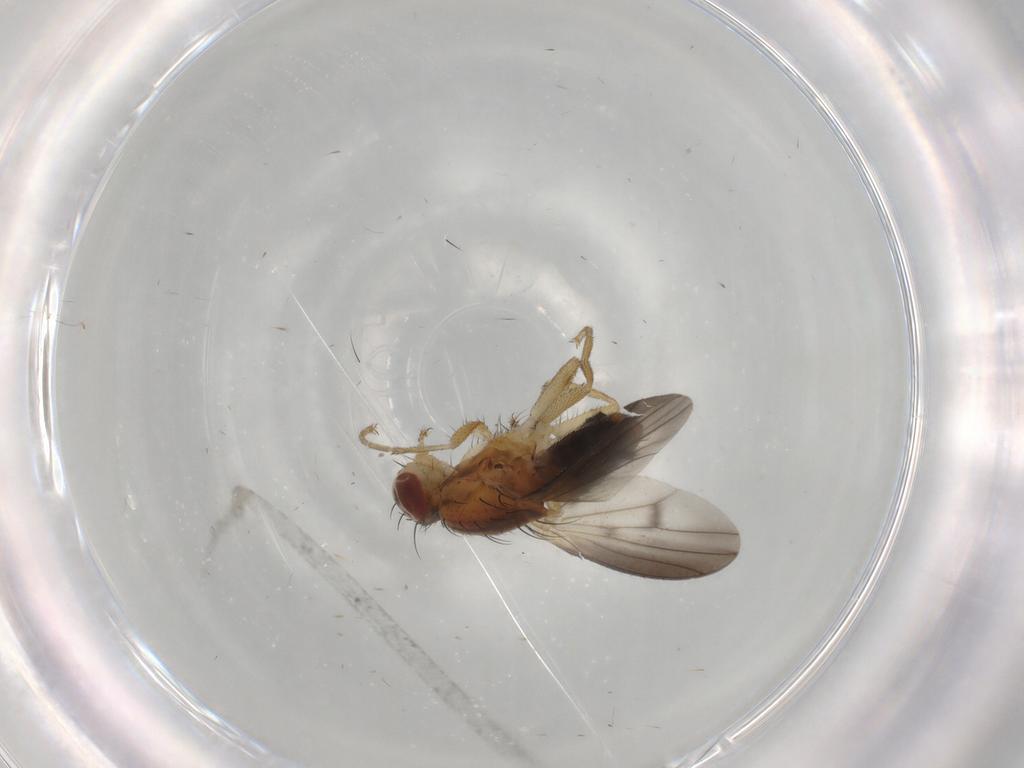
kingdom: Animalia
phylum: Arthropoda
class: Insecta
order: Diptera
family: Heleomyzidae
